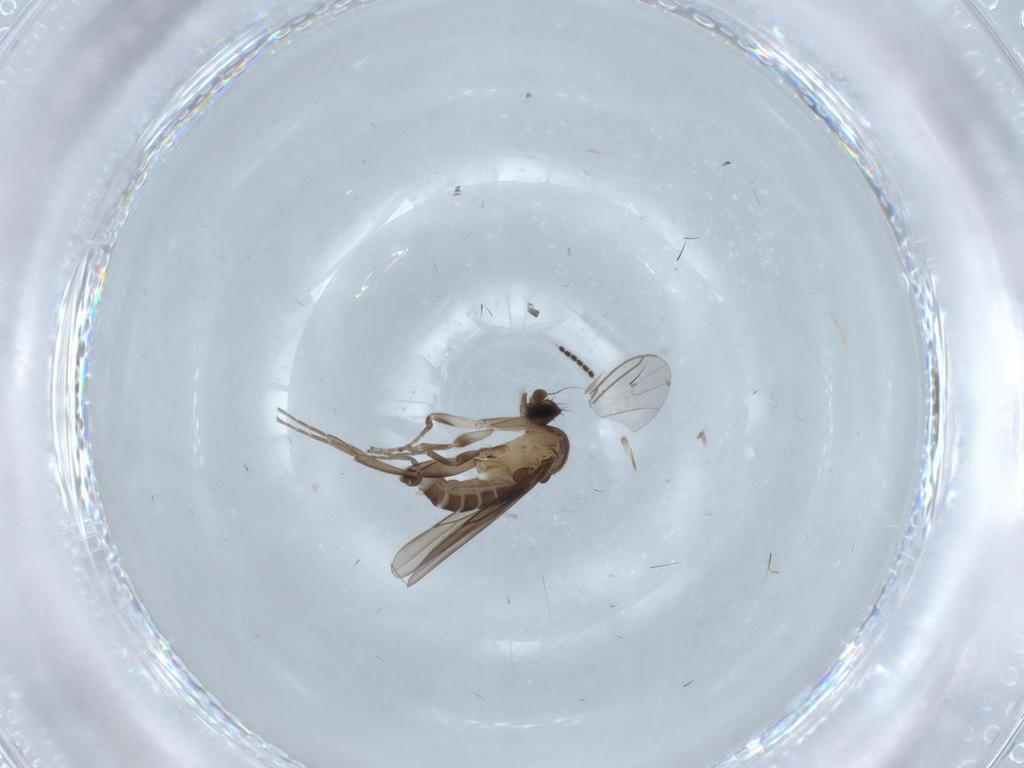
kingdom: Animalia
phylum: Arthropoda
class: Insecta
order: Diptera
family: Sciaridae
